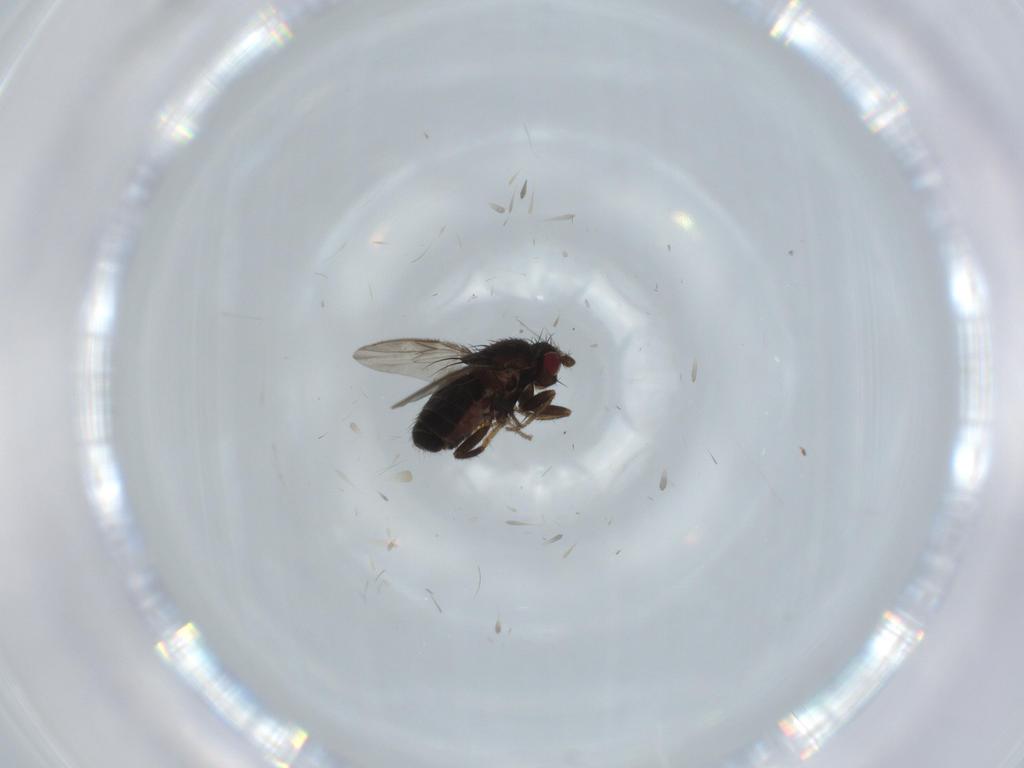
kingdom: Animalia
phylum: Arthropoda
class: Insecta
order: Diptera
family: Sphaeroceridae
